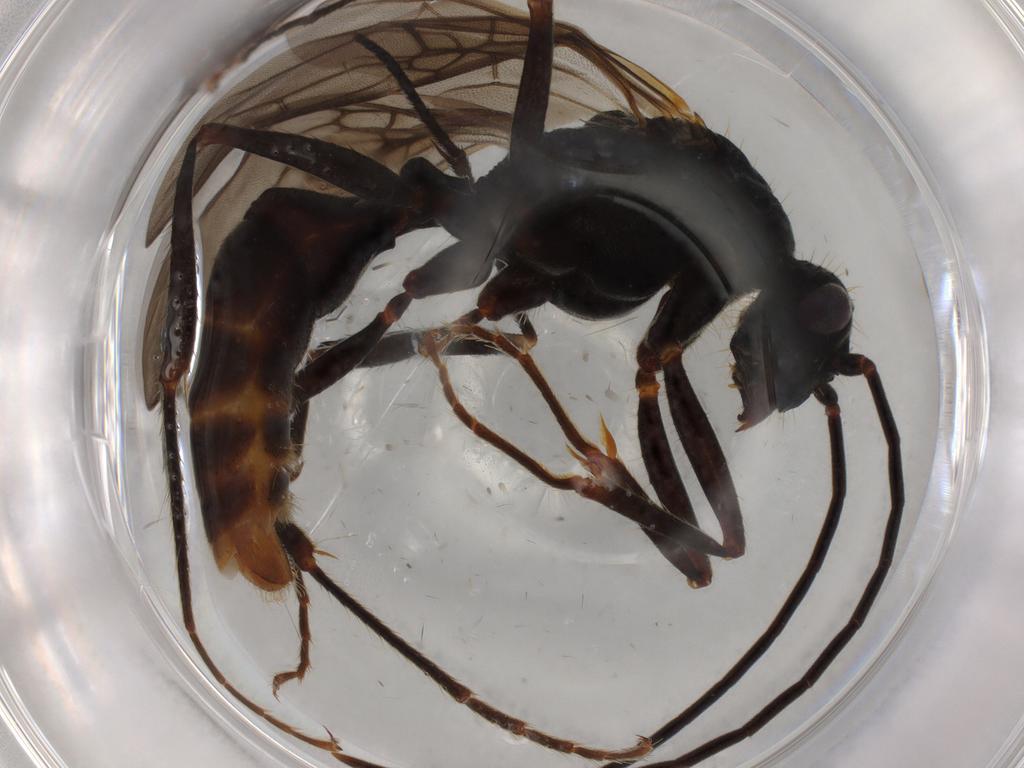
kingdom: Animalia
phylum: Arthropoda
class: Insecta
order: Hymenoptera
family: Formicidae
